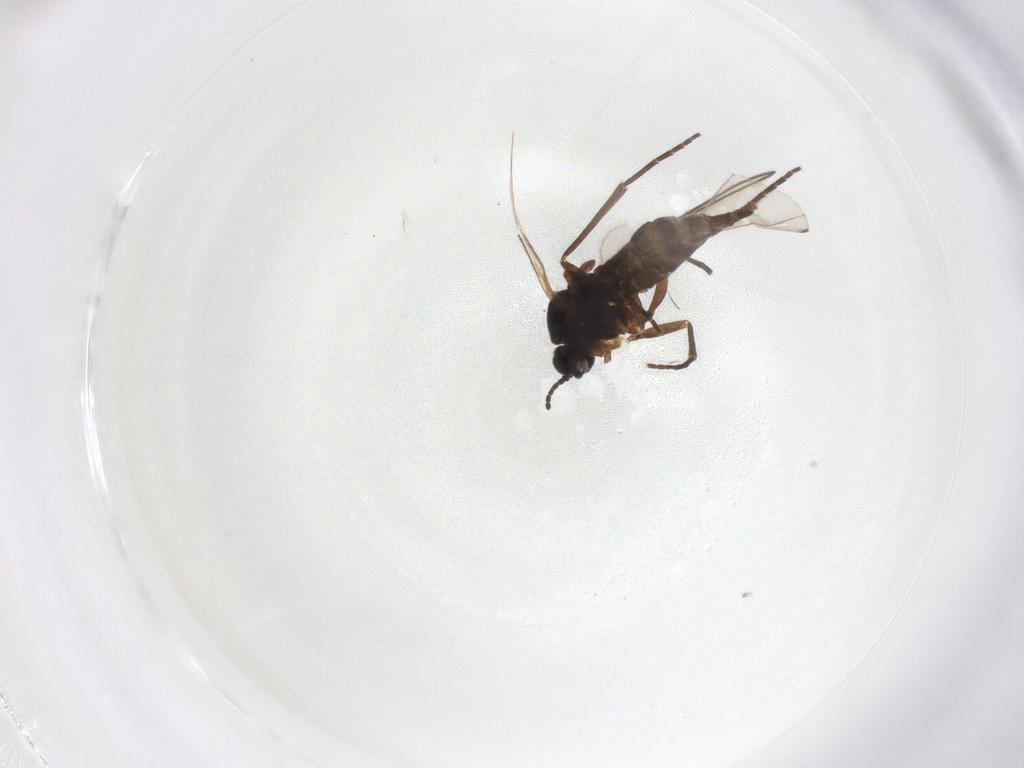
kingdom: Animalia
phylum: Arthropoda
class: Insecta
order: Diptera
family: Sciaridae
